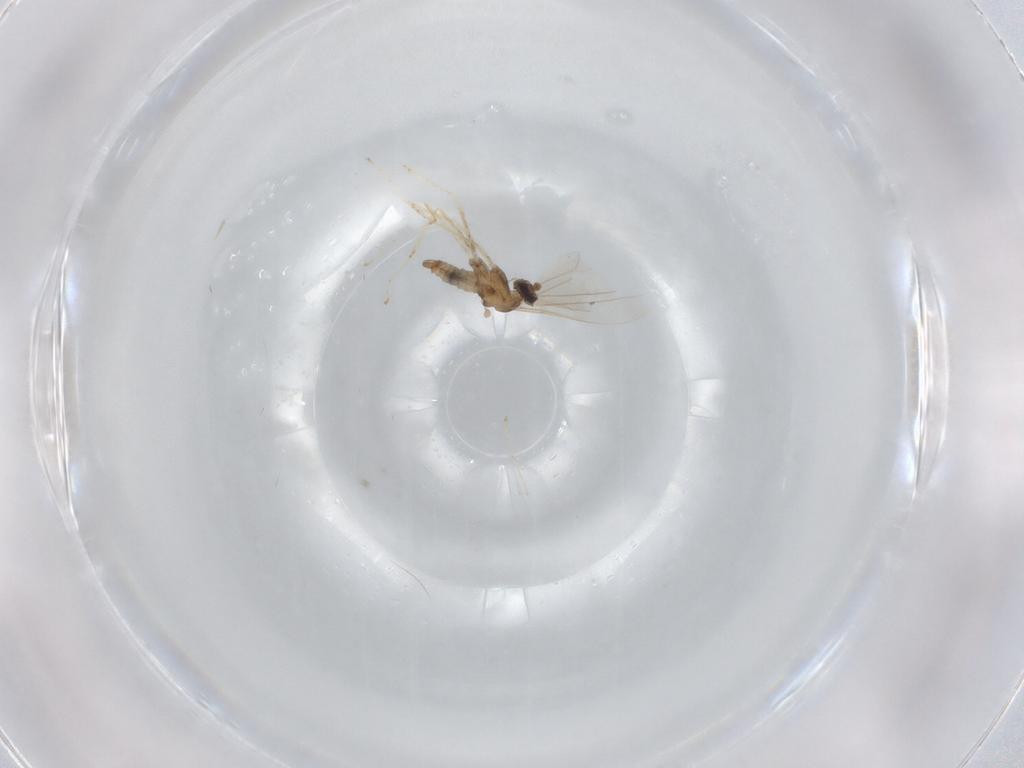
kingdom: Animalia
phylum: Arthropoda
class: Insecta
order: Diptera
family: Cecidomyiidae
